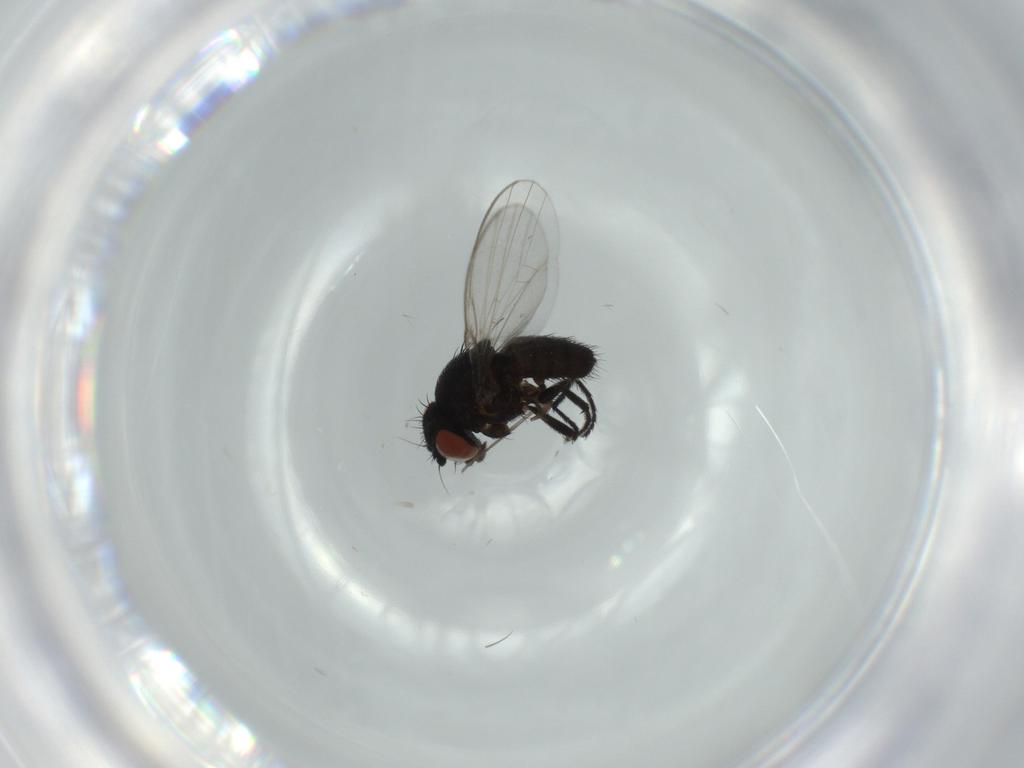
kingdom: Animalia
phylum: Arthropoda
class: Insecta
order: Diptera
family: Milichiidae
